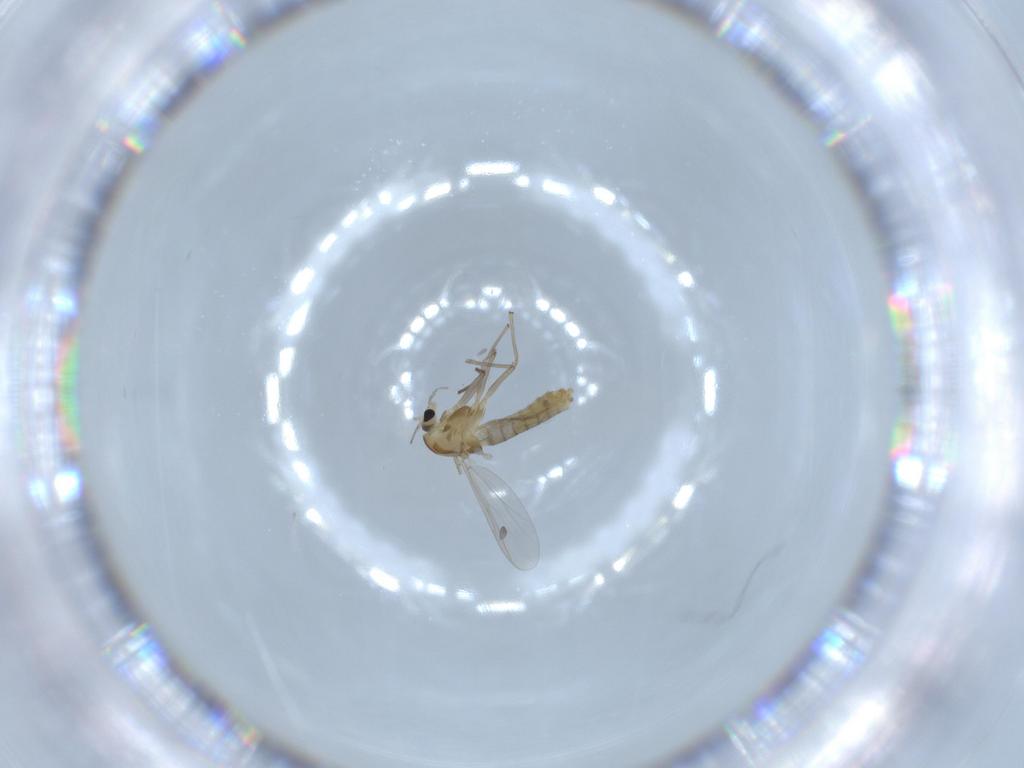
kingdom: Animalia
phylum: Arthropoda
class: Insecta
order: Diptera
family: Chironomidae
